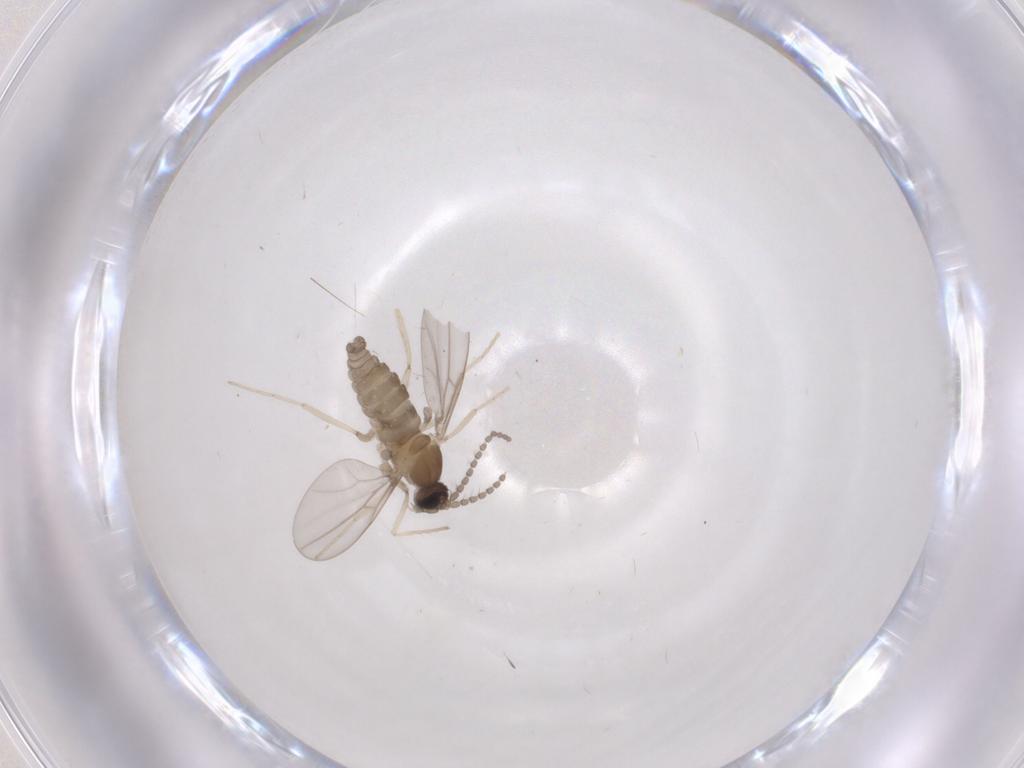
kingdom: Animalia
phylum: Arthropoda
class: Insecta
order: Diptera
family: Cecidomyiidae
